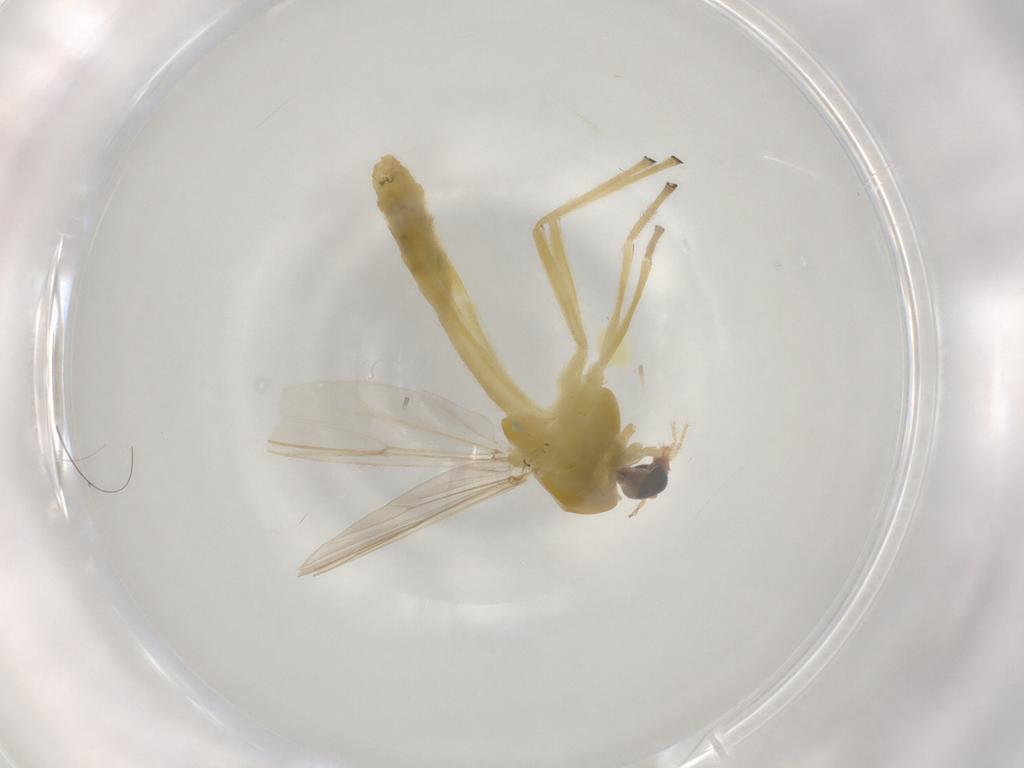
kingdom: Animalia
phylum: Arthropoda
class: Insecta
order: Diptera
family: Chironomidae
